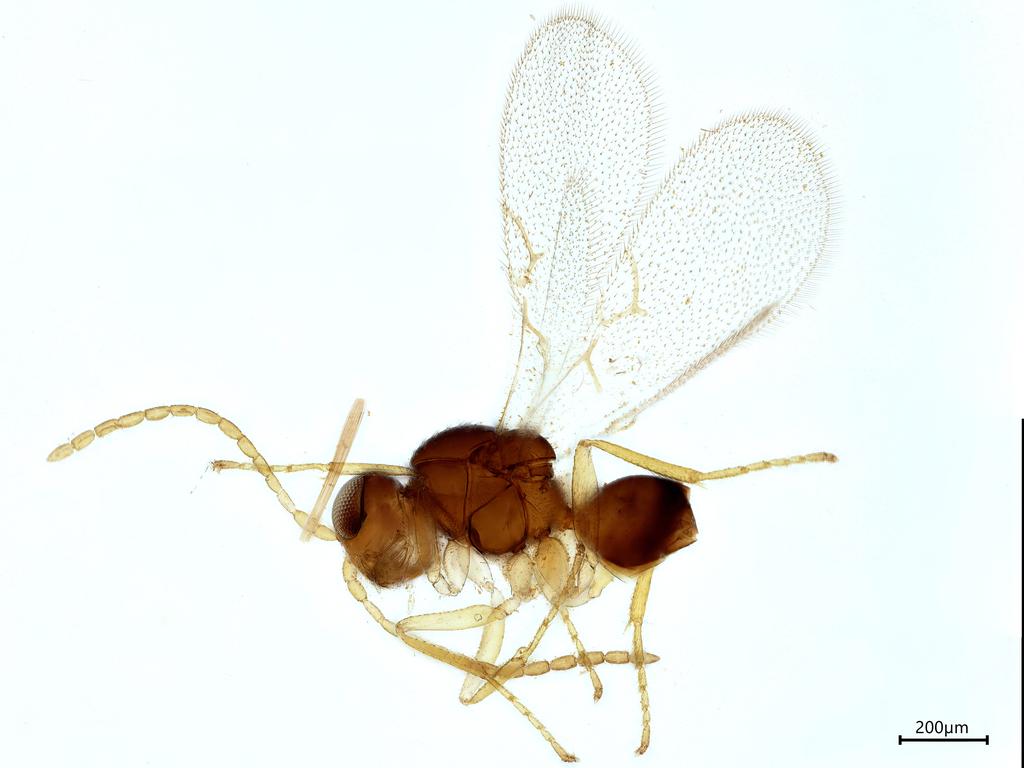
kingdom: Animalia
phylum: Arthropoda
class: Insecta
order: Hymenoptera
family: Figitidae
